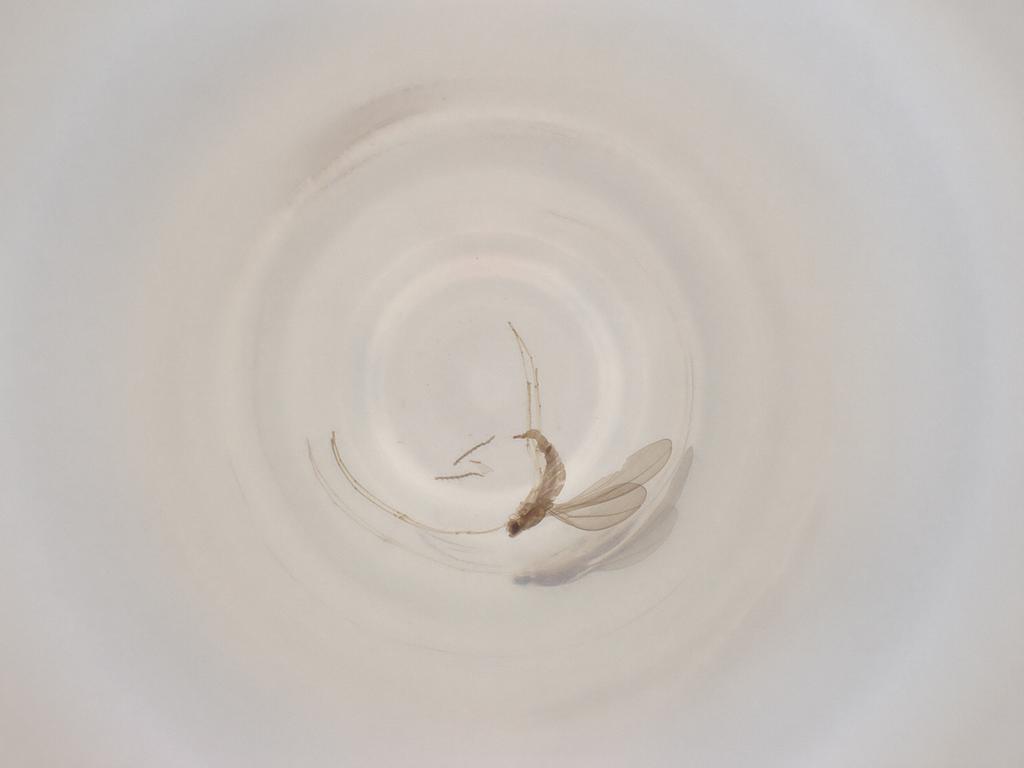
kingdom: Animalia
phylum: Arthropoda
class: Insecta
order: Diptera
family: Cecidomyiidae
